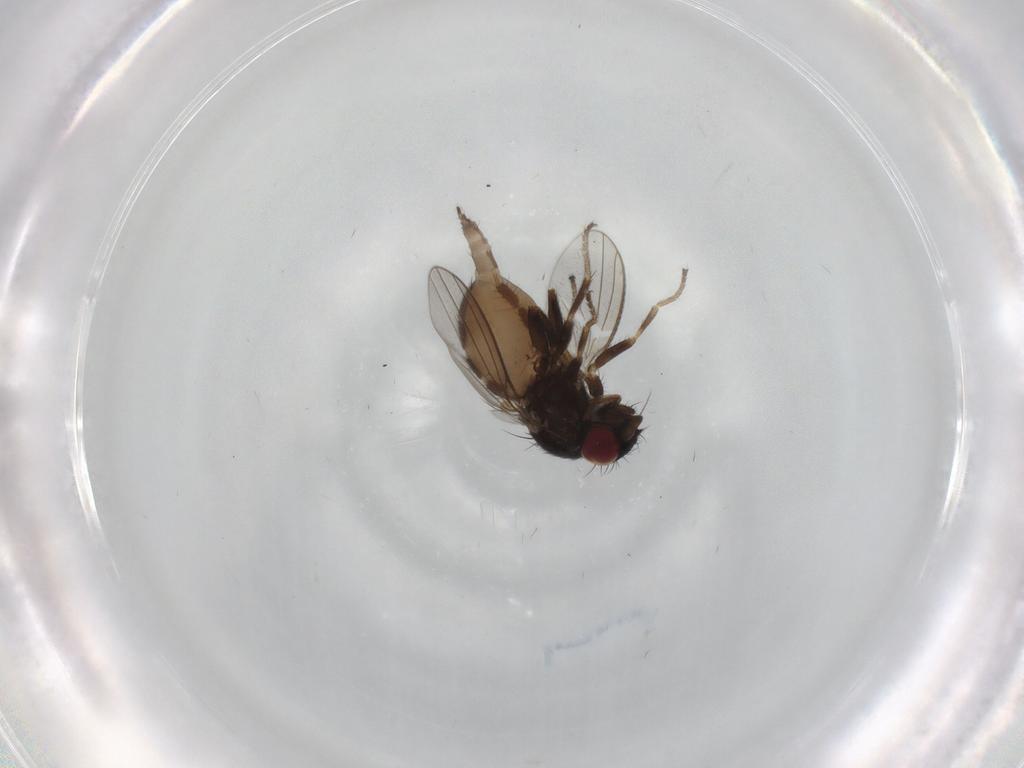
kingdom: Animalia
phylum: Arthropoda
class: Insecta
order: Diptera
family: Milichiidae
